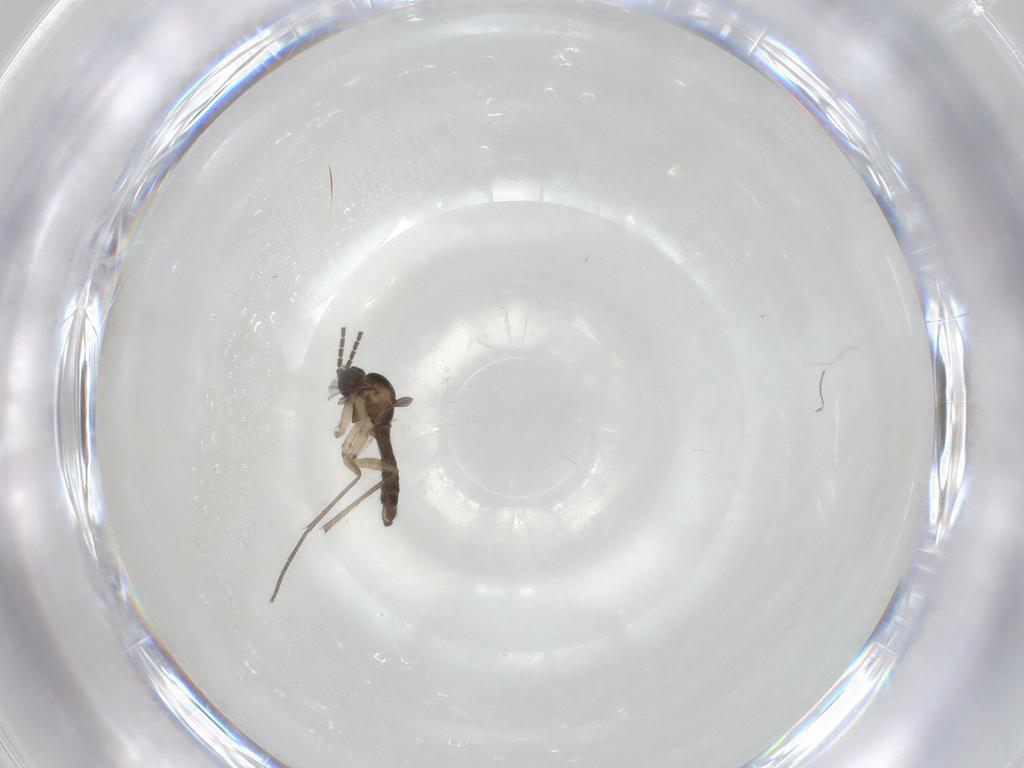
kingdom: Animalia
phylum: Arthropoda
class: Insecta
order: Diptera
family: Sciaridae
